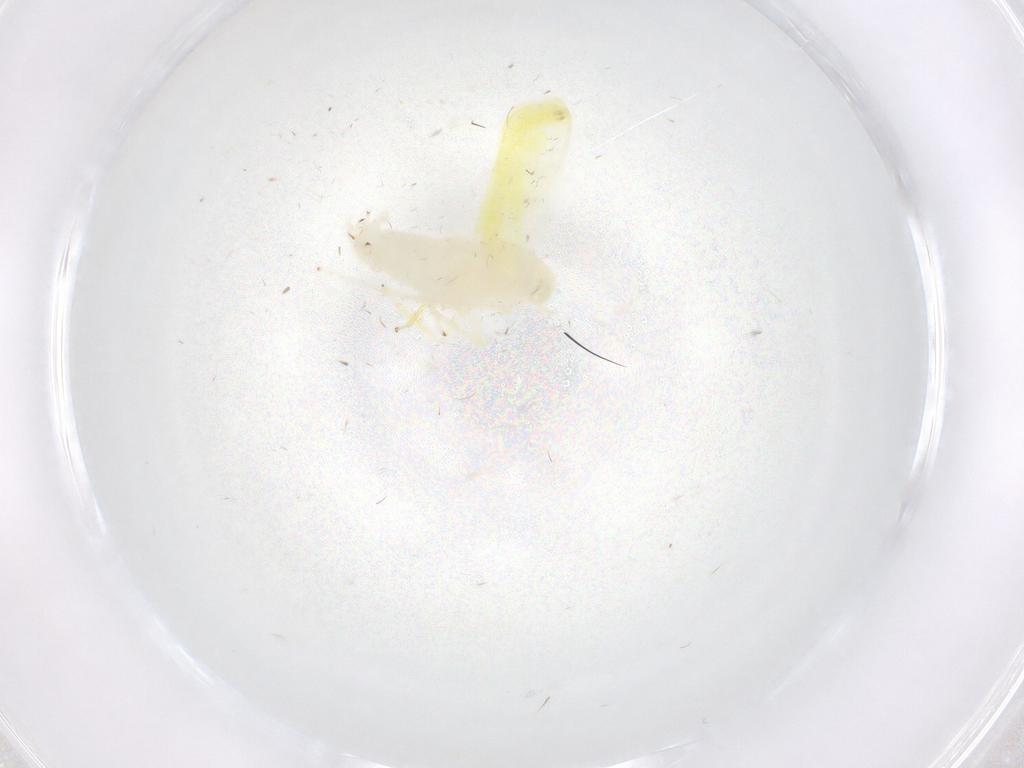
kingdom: Animalia
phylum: Arthropoda
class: Insecta
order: Hemiptera
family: Cicadellidae
